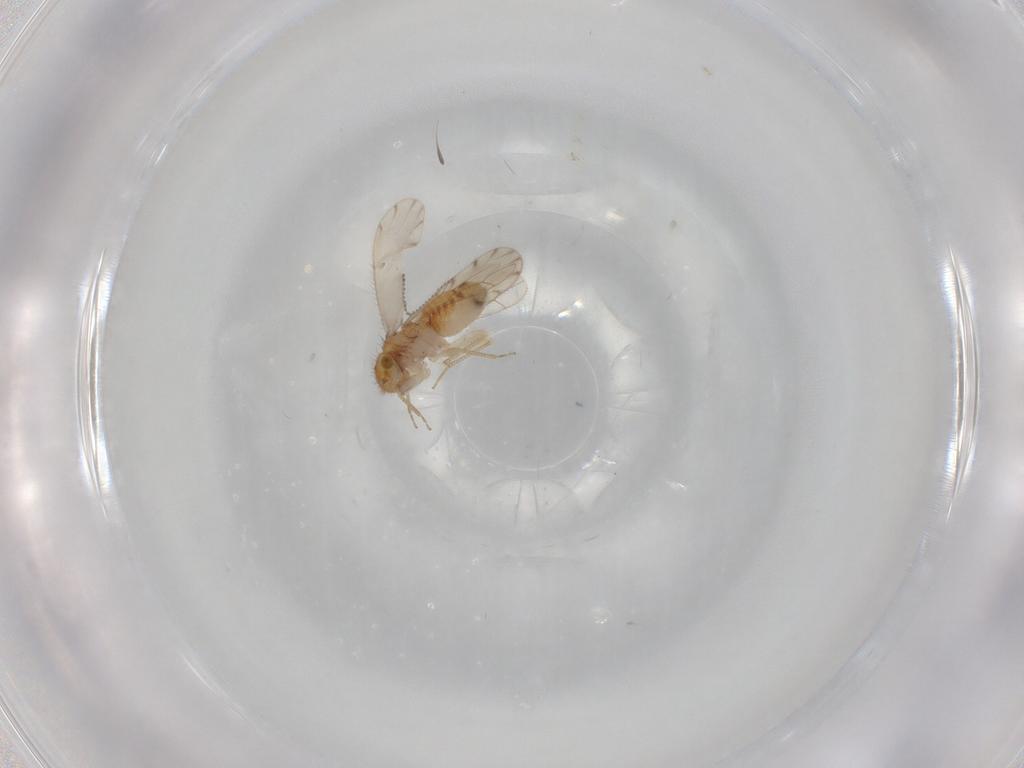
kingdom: Animalia
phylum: Arthropoda
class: Insecta
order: Psocodea
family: Ectopsocidae
